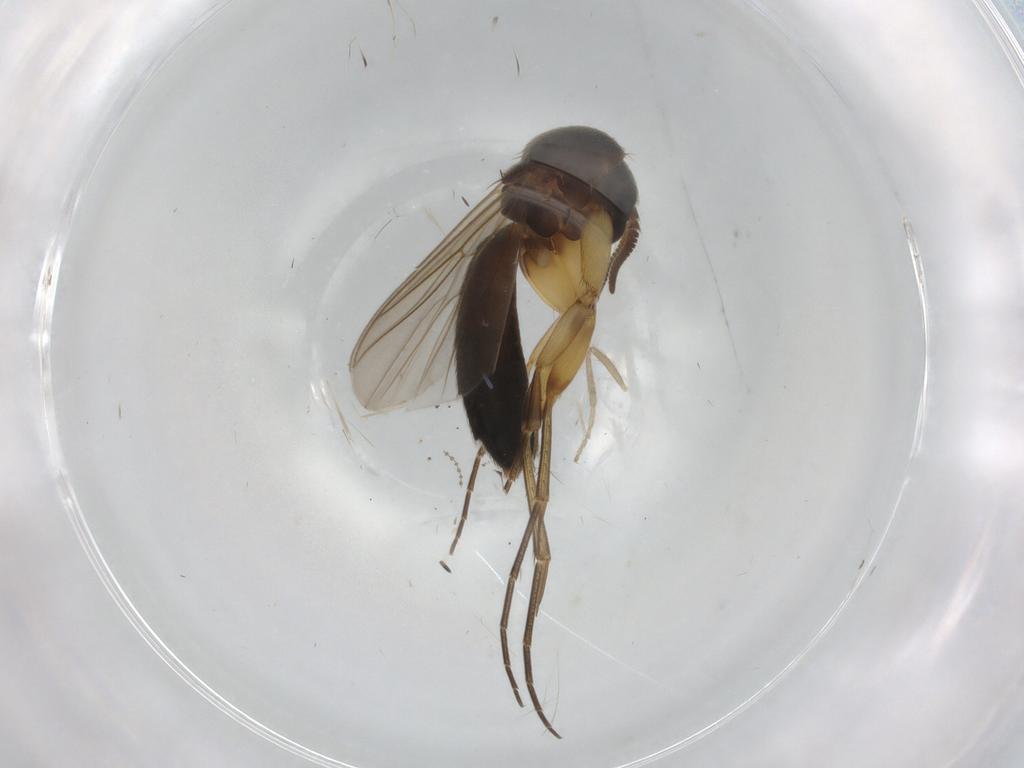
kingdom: Animalia
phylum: Arthropoda
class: Insecta
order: Diptera
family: Mycetophilidae
